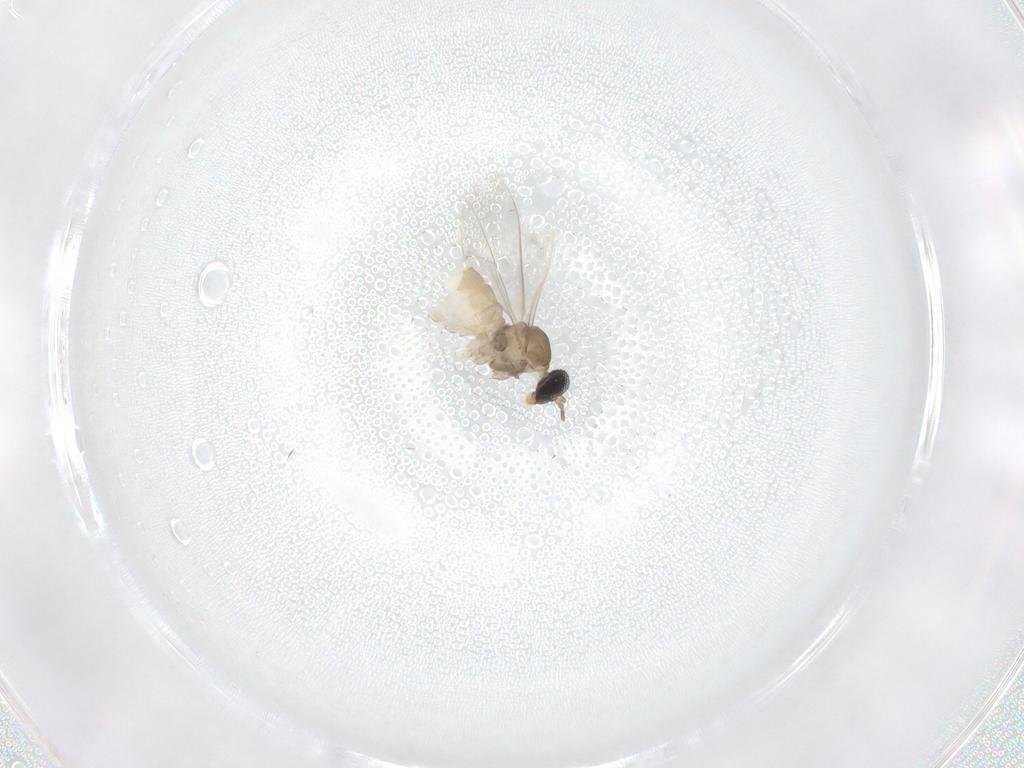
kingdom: Animalia
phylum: Arthropoda
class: Insecta
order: Diptera
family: Cecidomyiidae
